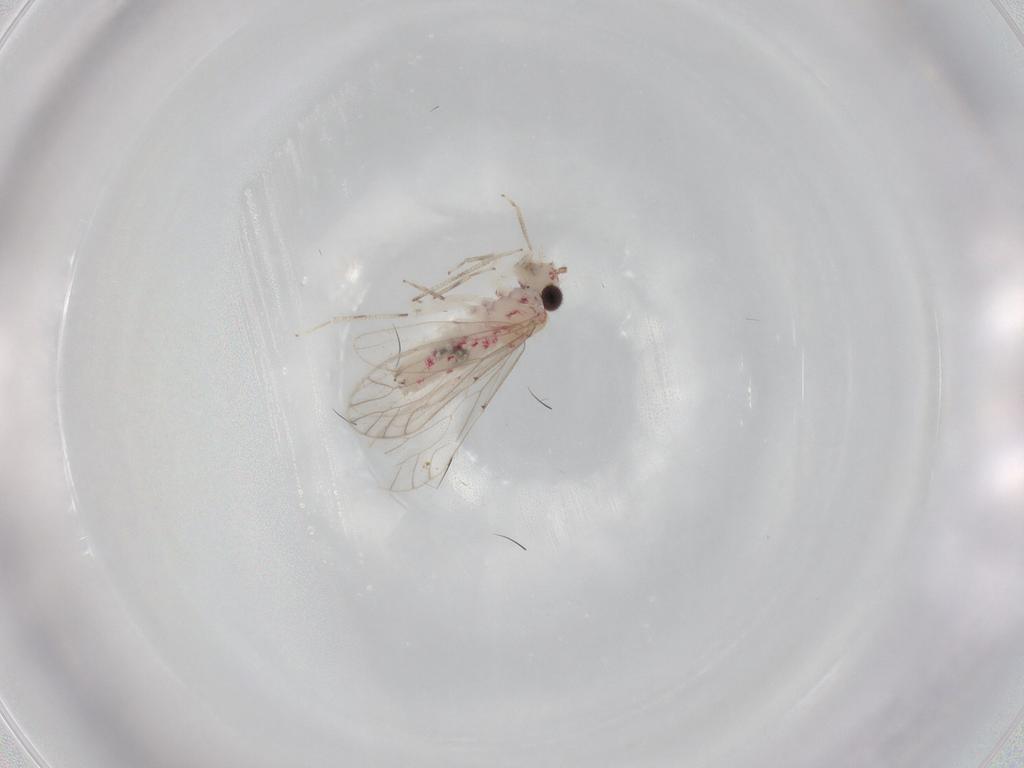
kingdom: Animalia
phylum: Arthropoda
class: Insecta
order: Psocodea
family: Caeciliusidae
